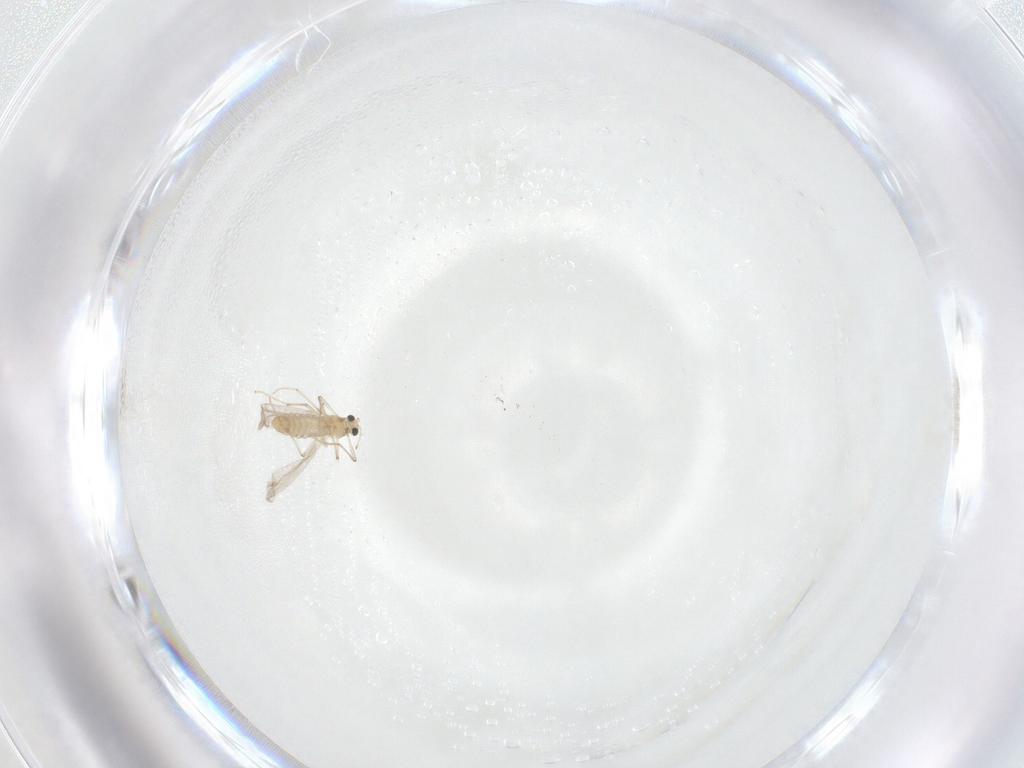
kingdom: Animalia
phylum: Arthropoda
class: Insecta
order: Diptera
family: Chironomidae
